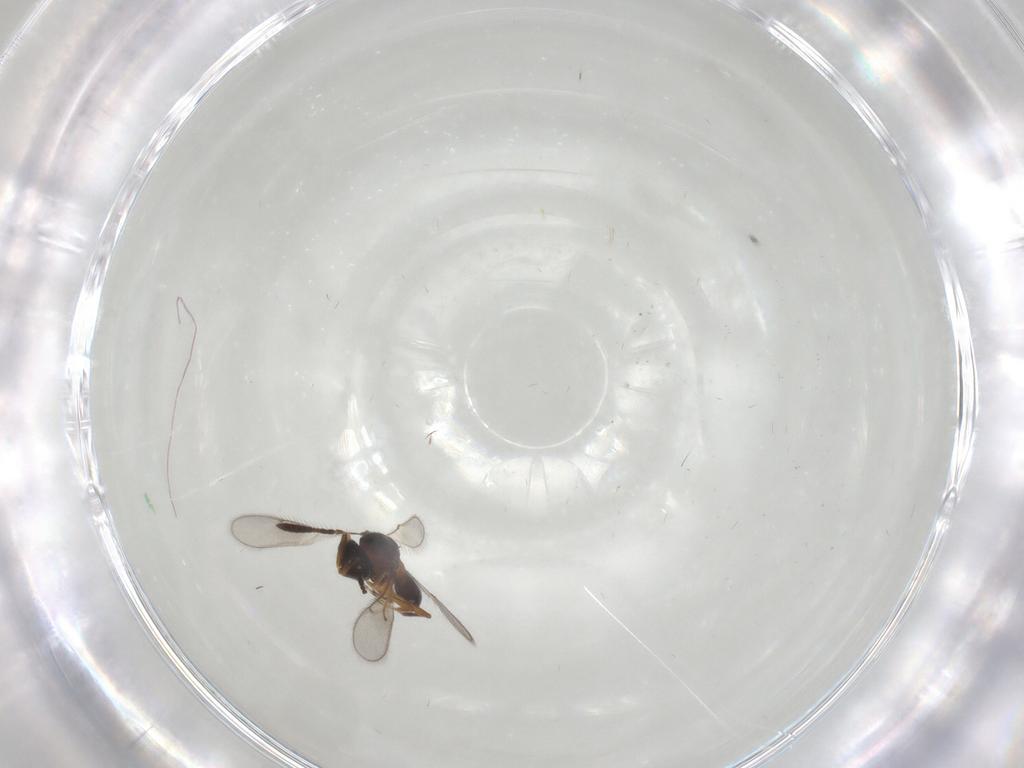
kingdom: Animalia
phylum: Arthropoda
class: Insecta
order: Hymenoptera
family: Scelionidae
